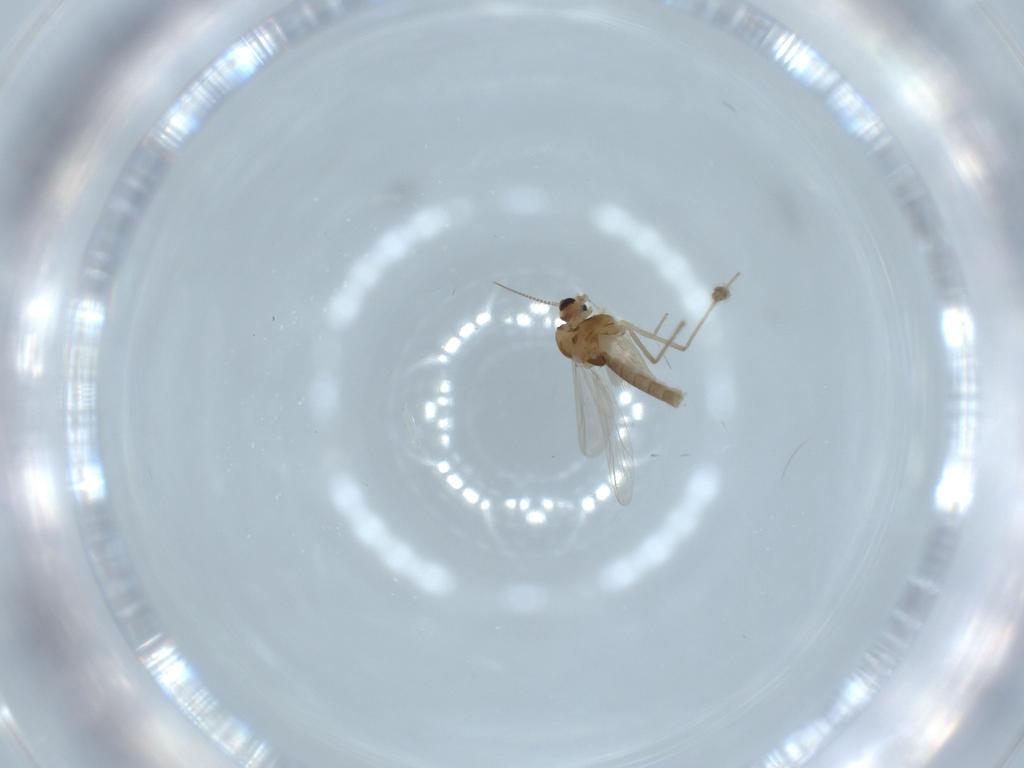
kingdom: Animalia
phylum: Arthropoda
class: Insecta
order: Diptera
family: Chironomidae
